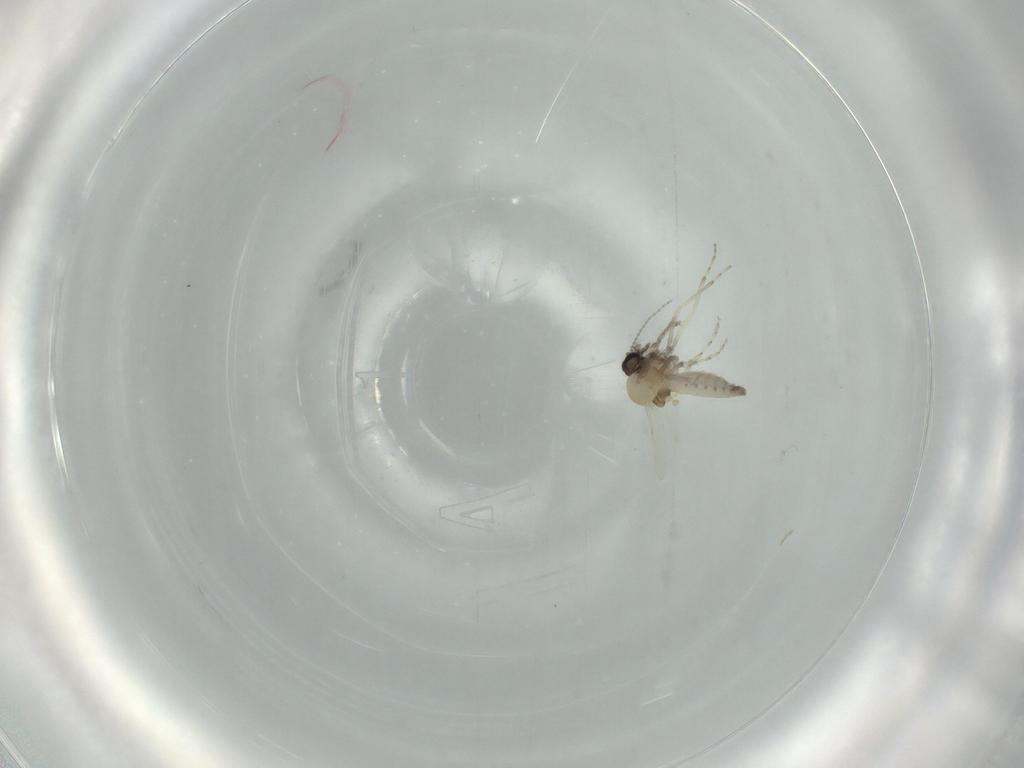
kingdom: Animalia
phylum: Arthropoda
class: Insecta
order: Diptera
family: Ceratopogonidae
